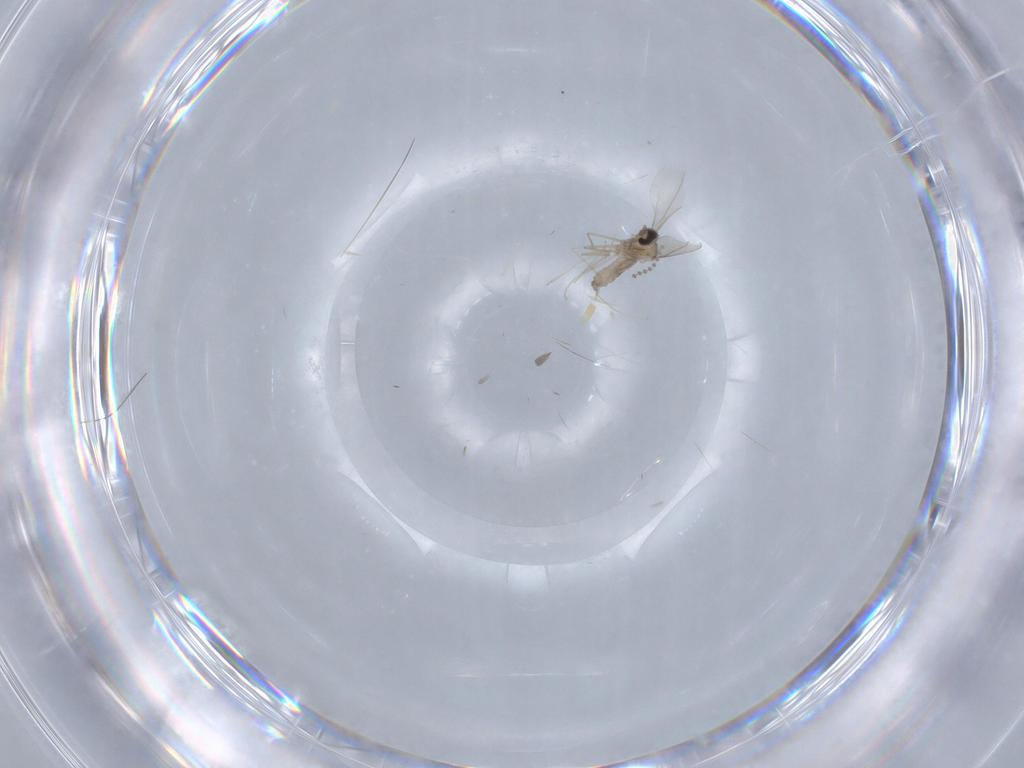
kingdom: Animalia
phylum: Arthropoda
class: Insecta
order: Diptera
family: Psychodidae
